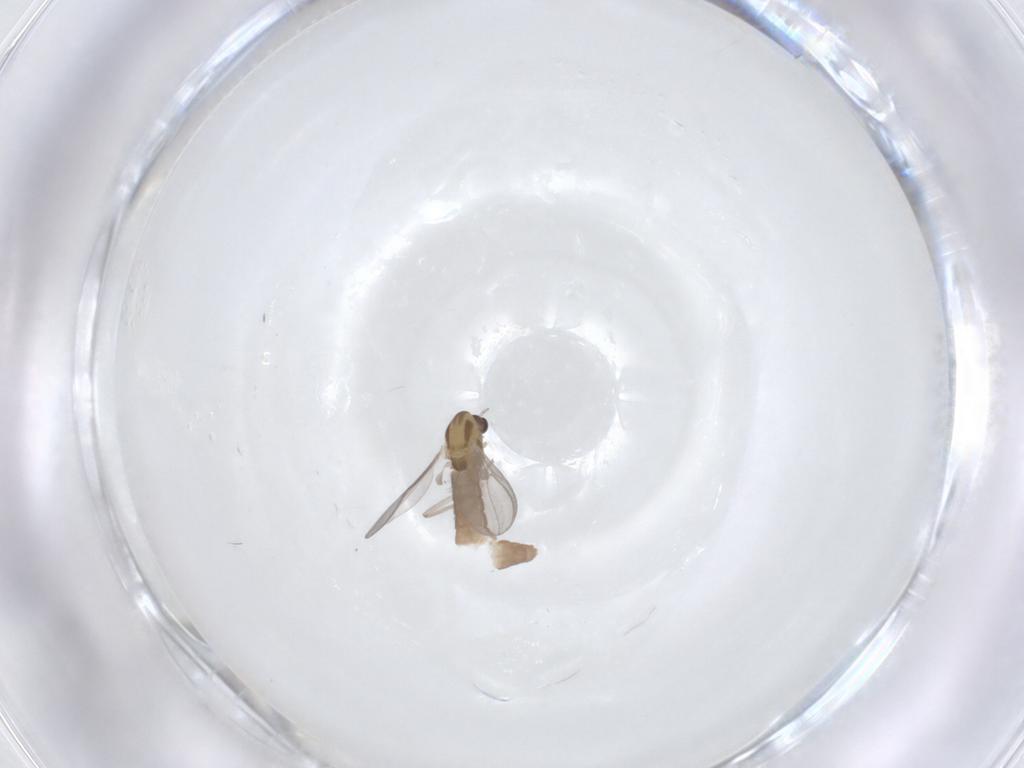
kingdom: Animalia
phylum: Arthropoda
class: Insecta
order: Diptera
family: Chironomidae
